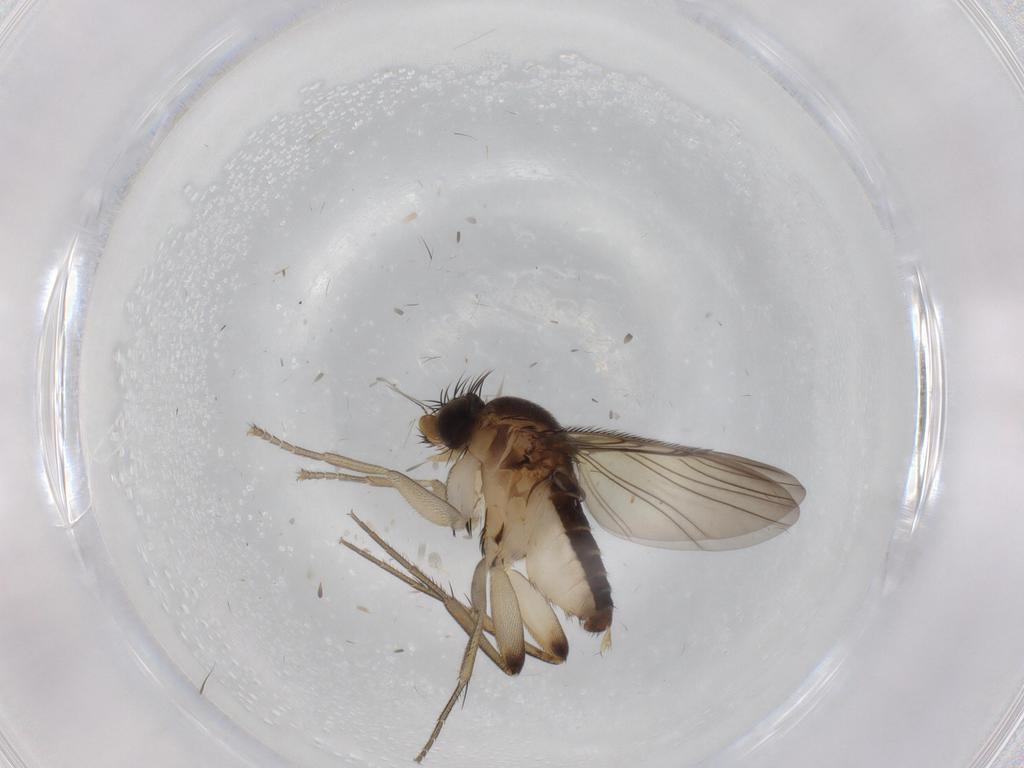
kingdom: Animalia
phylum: Arthropoda
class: Insecta
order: Diptera
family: Phoridae
